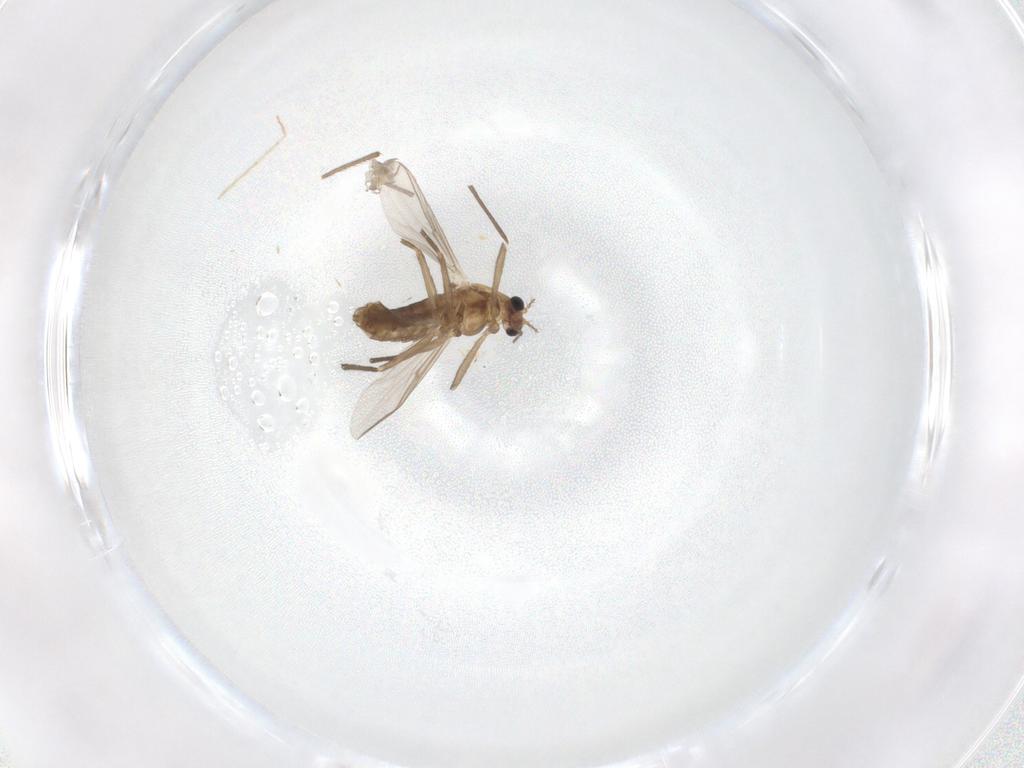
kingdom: Animalia
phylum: Arthropoda
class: Insecta
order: Diptera
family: Chironomidae
